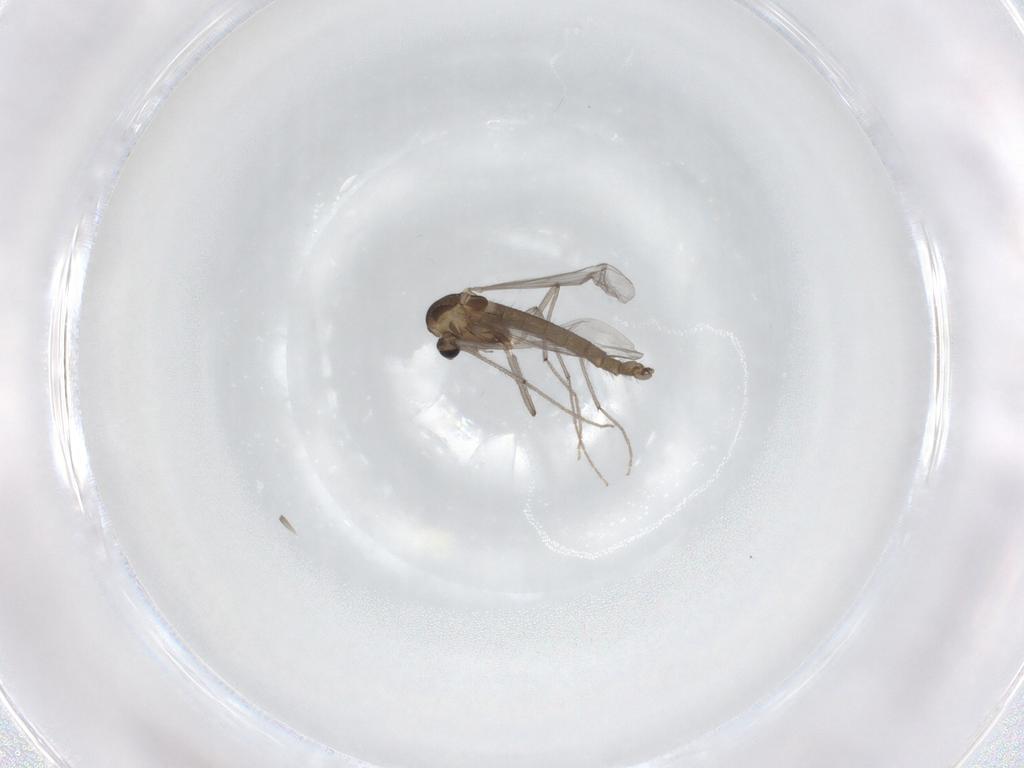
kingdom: Animalia
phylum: Arthropoda
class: Insecta
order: Diptera
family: Chironomidae
